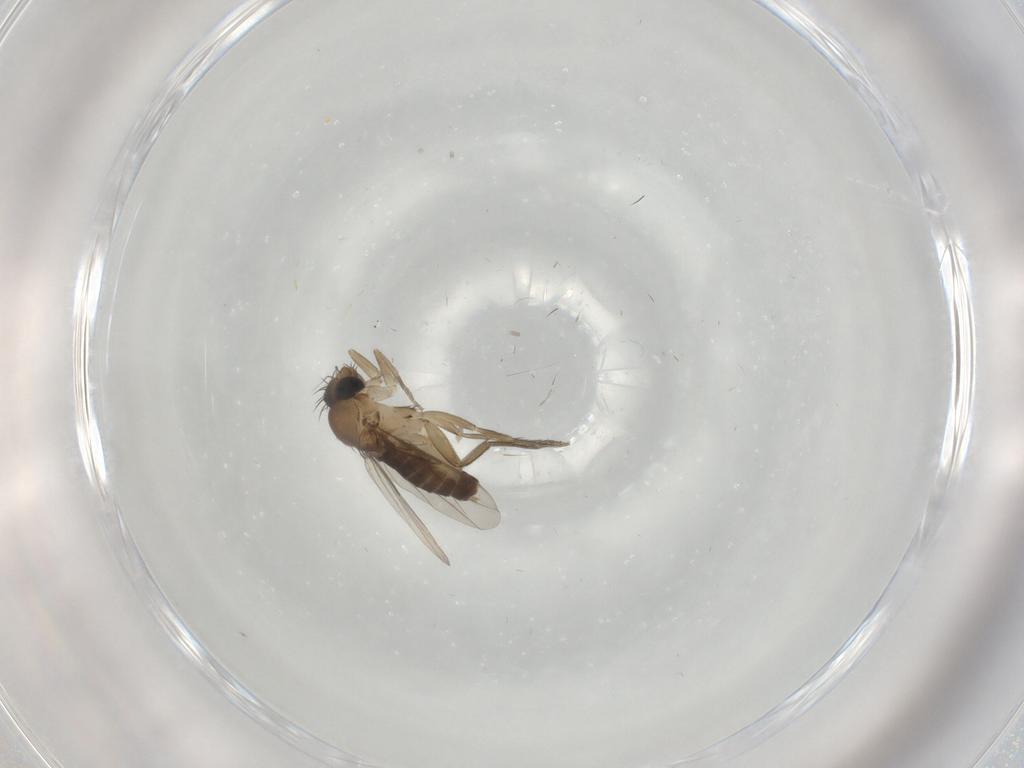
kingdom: Animalia
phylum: Arthropoda
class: Insecta
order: Diptera
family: Phoridae
